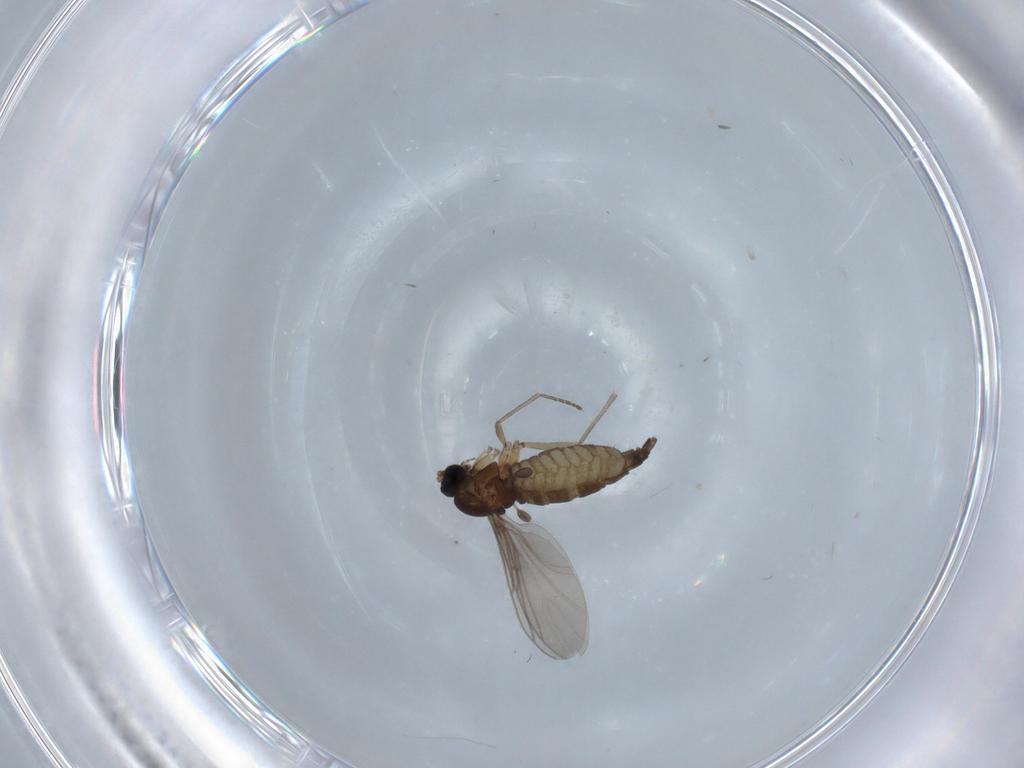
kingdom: Animalia
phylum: Arthropoda
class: Insecta
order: Diptera
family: Sciaridae
